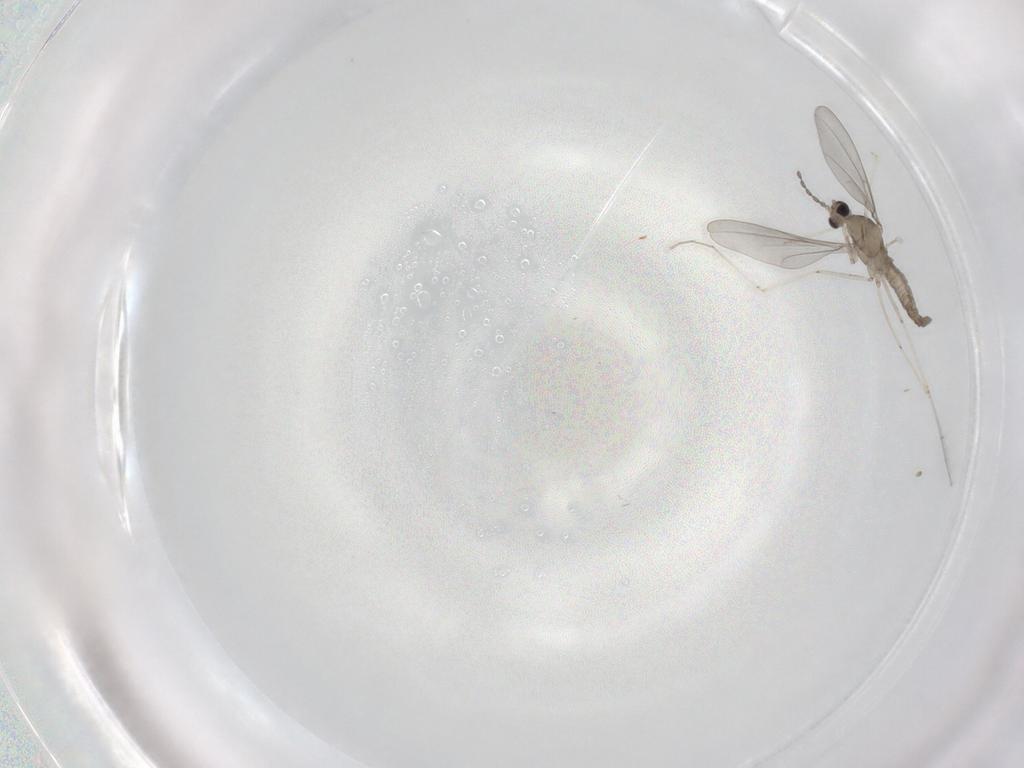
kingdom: Animalia
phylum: Arthropoda
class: Insecta
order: Diptera
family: Cecidomyiidae
